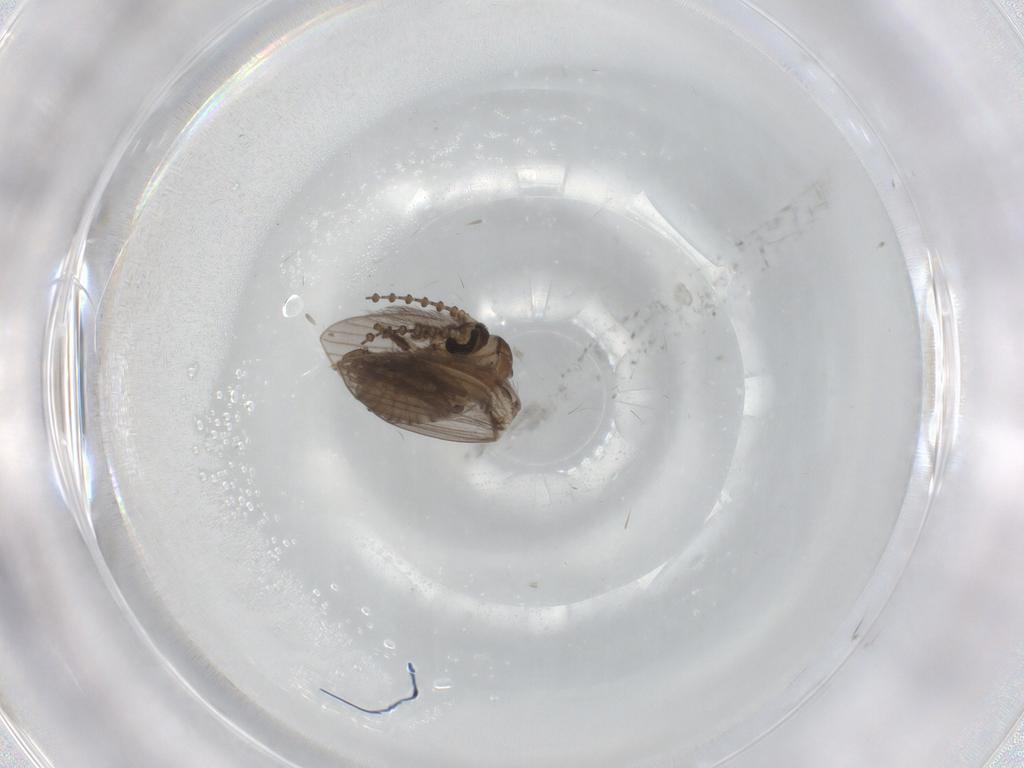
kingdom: Animalia
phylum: Arthropoda
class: Insecta
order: Diptera
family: Psychodidae
